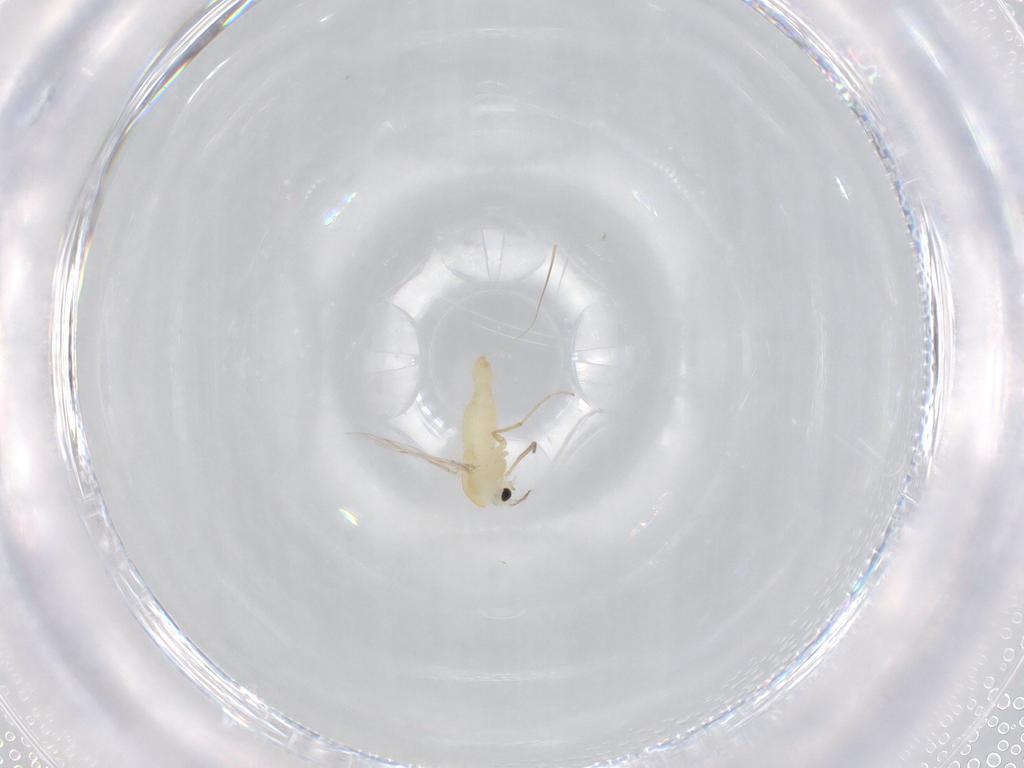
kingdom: Animalia
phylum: Arthropoda
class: Insecta
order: Diptera
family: Chironomidae
